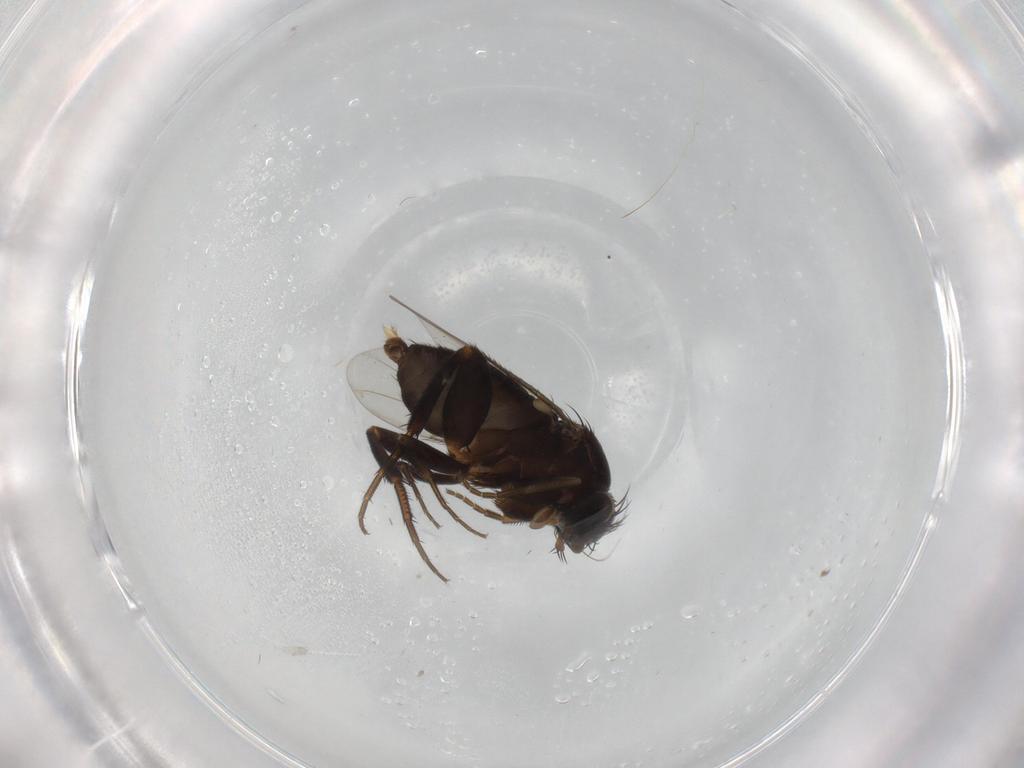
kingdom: Animalia
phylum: Arthropoda
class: Insecta
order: Diptera
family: Phoridae
